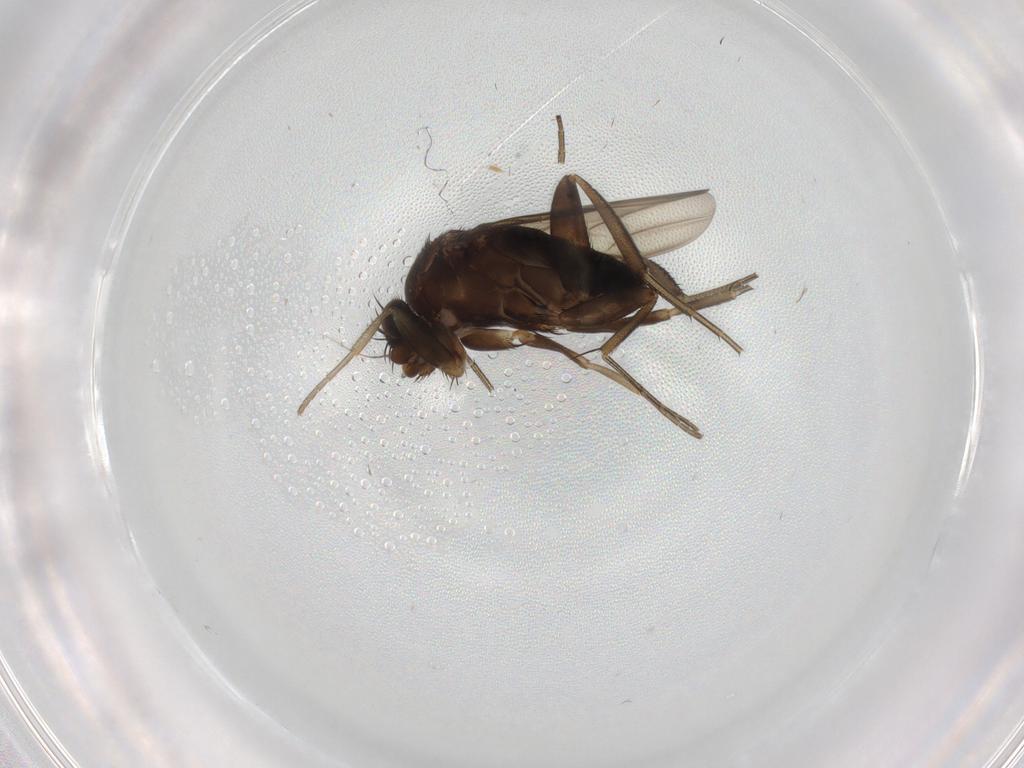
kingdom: Animalia
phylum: Arthropoda
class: Insecta
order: Diptera
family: Phoridae
